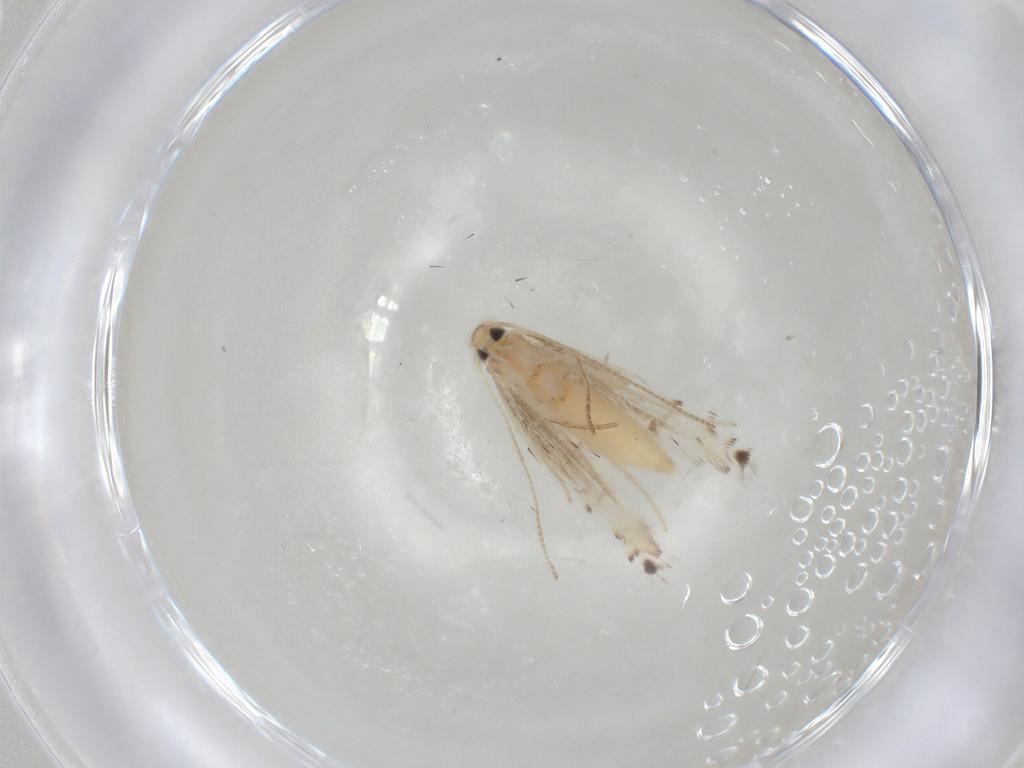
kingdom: Animalia
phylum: Arthropoda
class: Insecta
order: Lepidoptera
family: Gracillariidae
